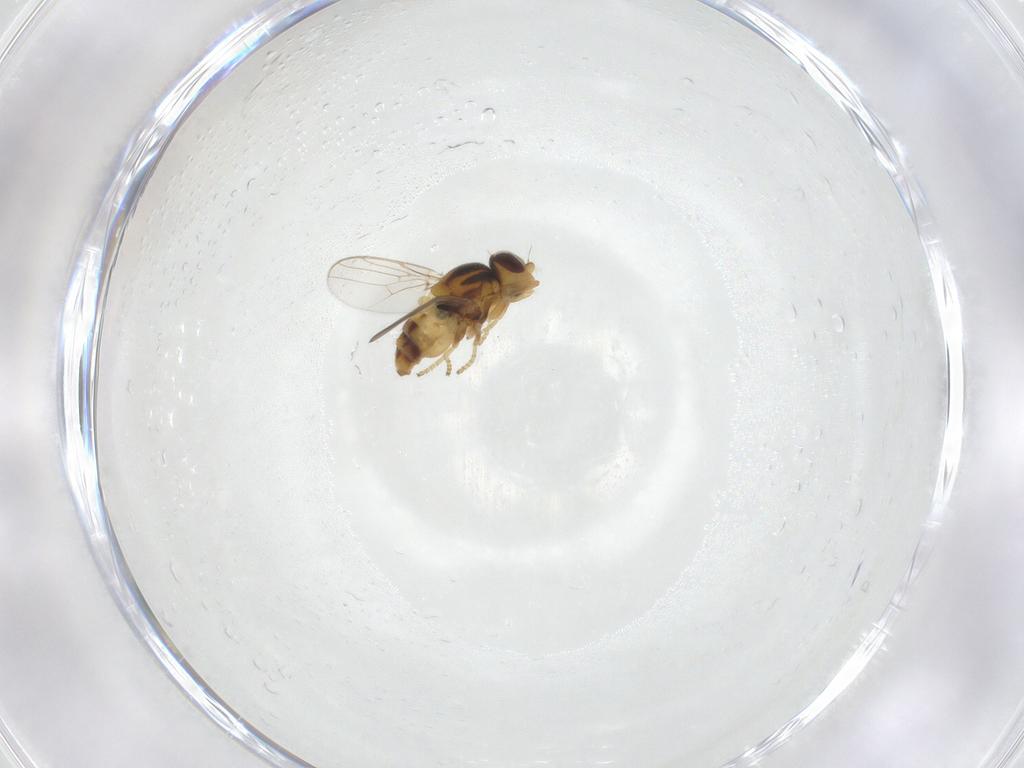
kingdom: Animalia
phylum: Arthropoda
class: Insecta
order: Diptera
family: Chloropidae
